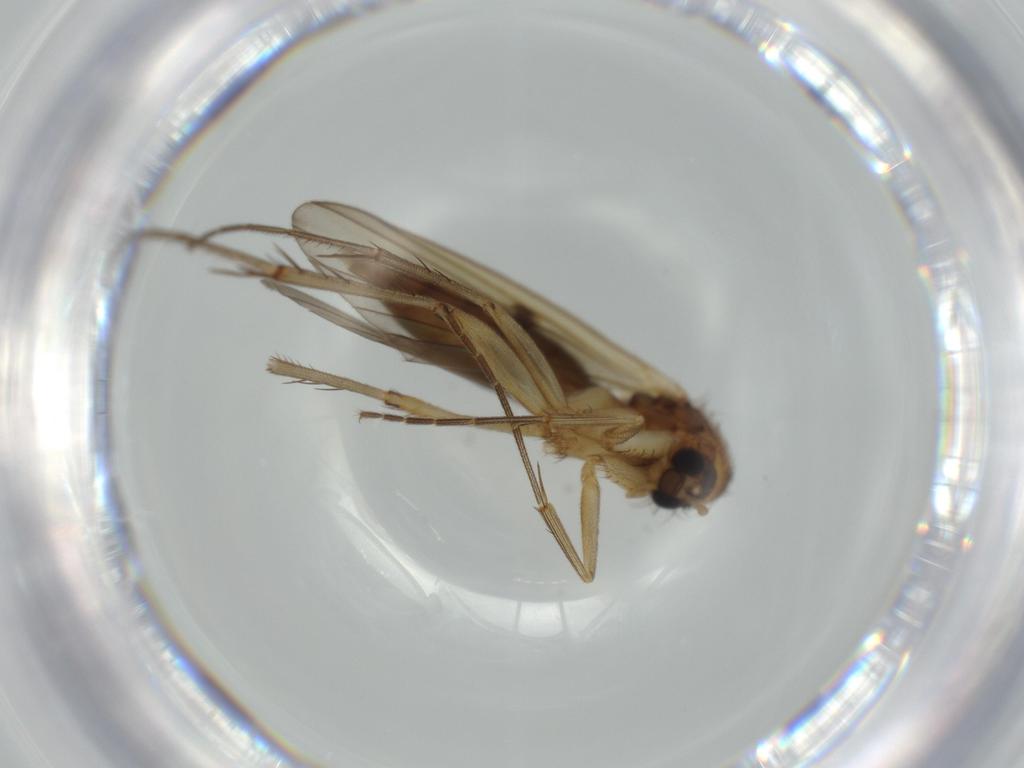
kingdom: Animalia
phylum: Arthropoda
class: Insecta
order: Diptera
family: Mycetophilidae
